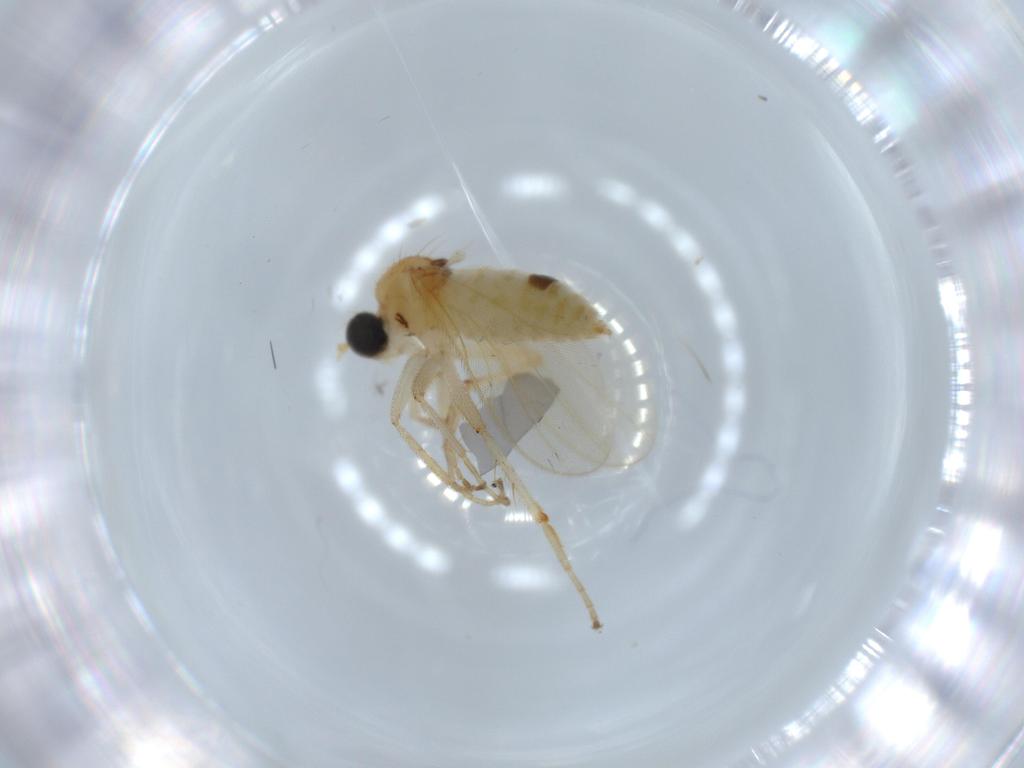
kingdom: Animalia
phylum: Arthropoda
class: Insecta
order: Diptera
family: Hybotidae
